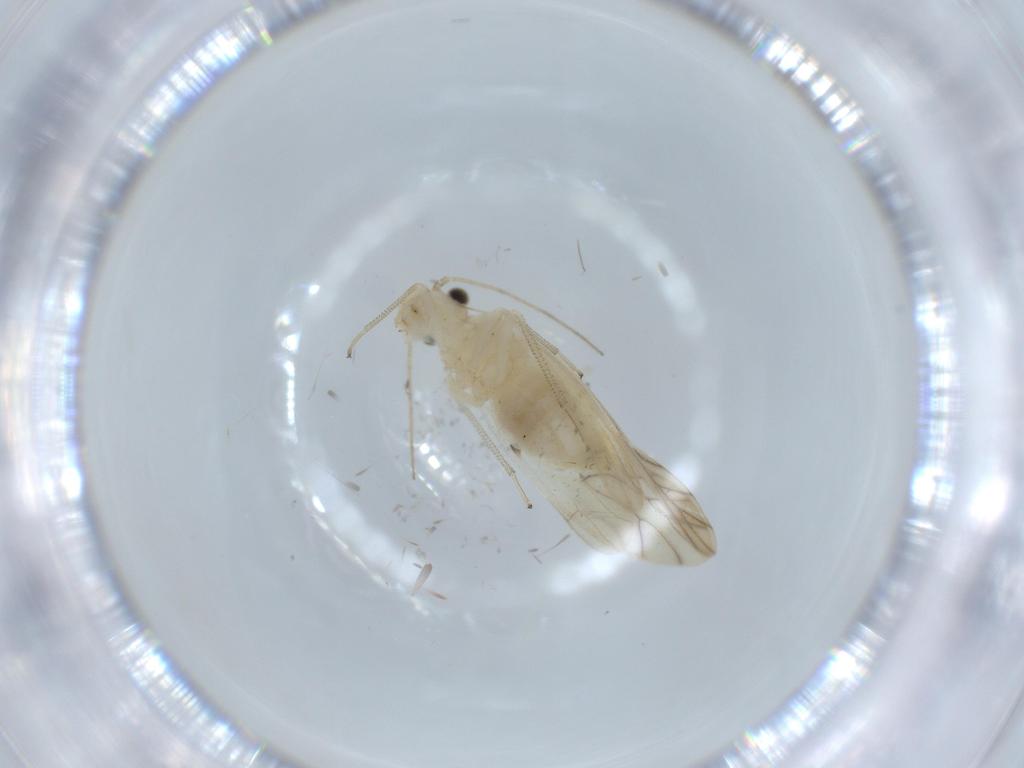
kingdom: Animalia
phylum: Arthropoda
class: Insecta
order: Psocodea
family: Caeciliusidae
